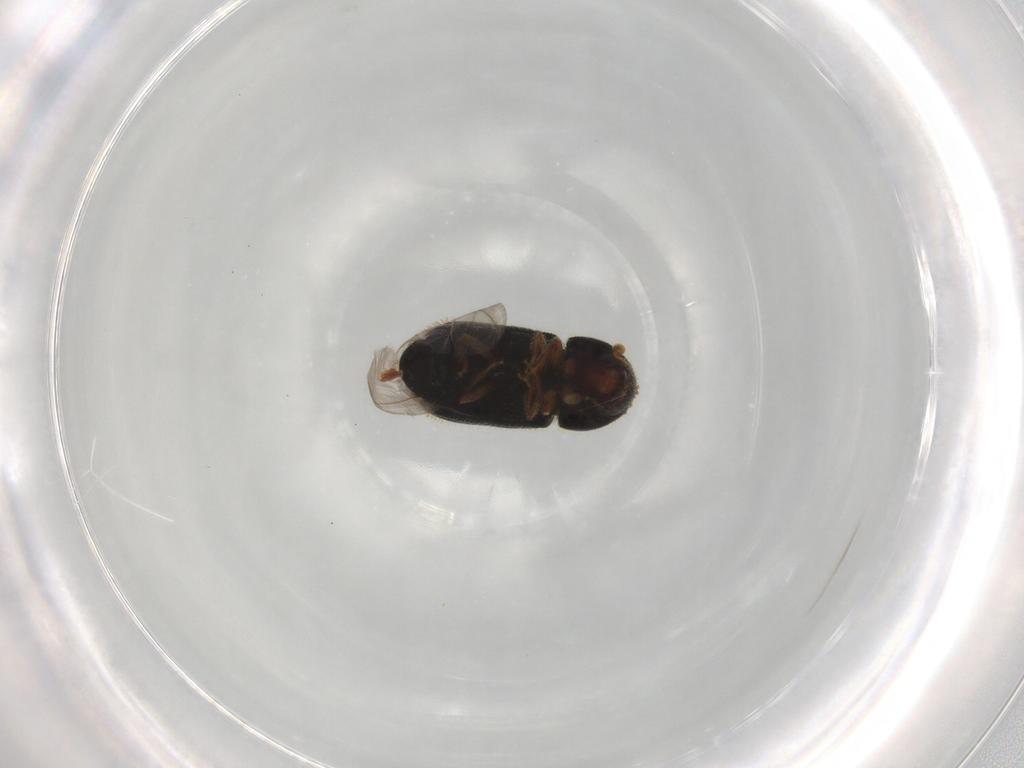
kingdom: Animalia
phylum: Arthropoda
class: Insecta
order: Coleoptera
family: Curculionidae
